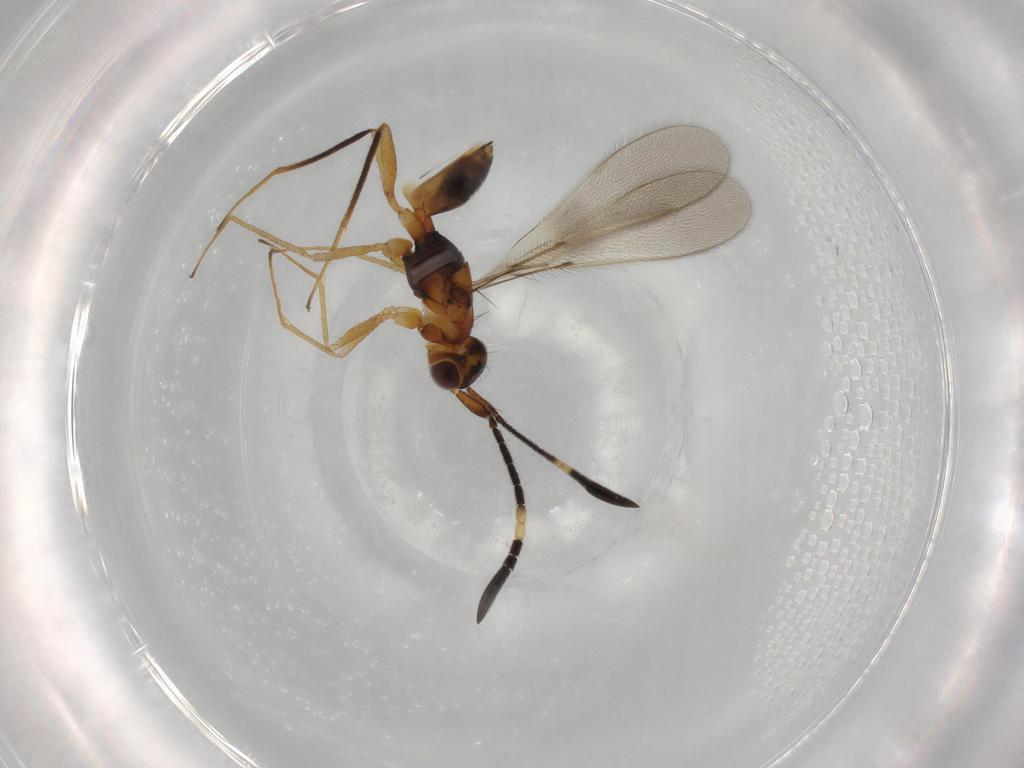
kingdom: Animalia
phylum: Arthropoda
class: Insecta
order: Hymenoptera
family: Mymaridae
